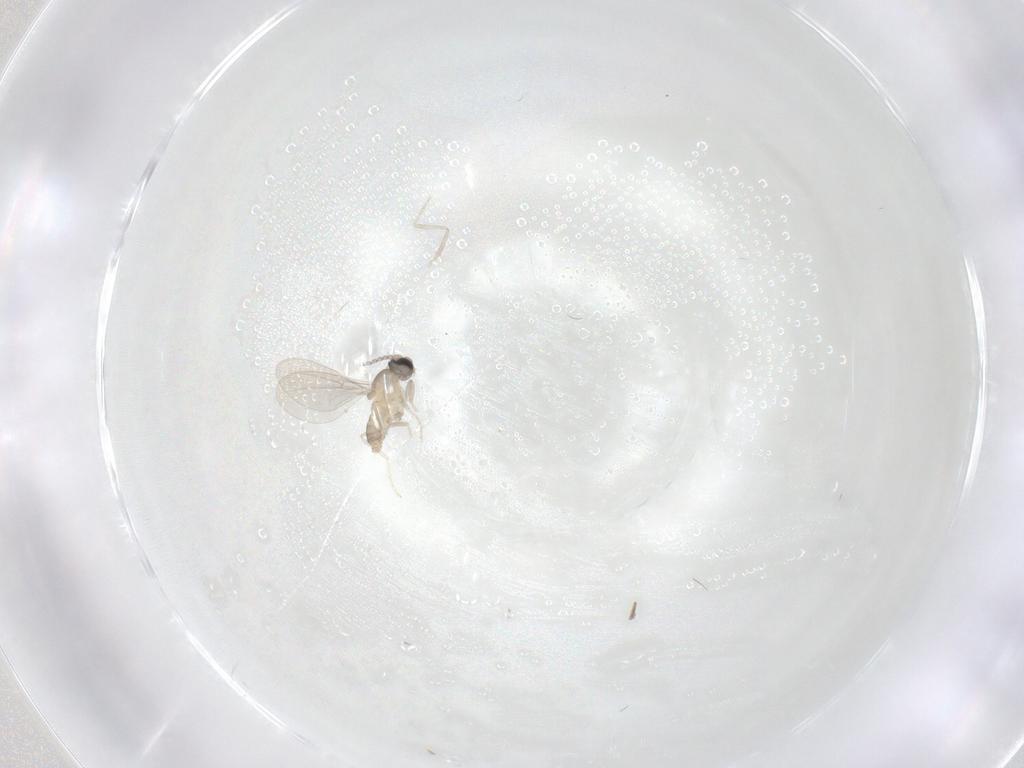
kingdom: Animalia
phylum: Arthropoda
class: Insecta
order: Diptera
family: Cecidomyiidae
